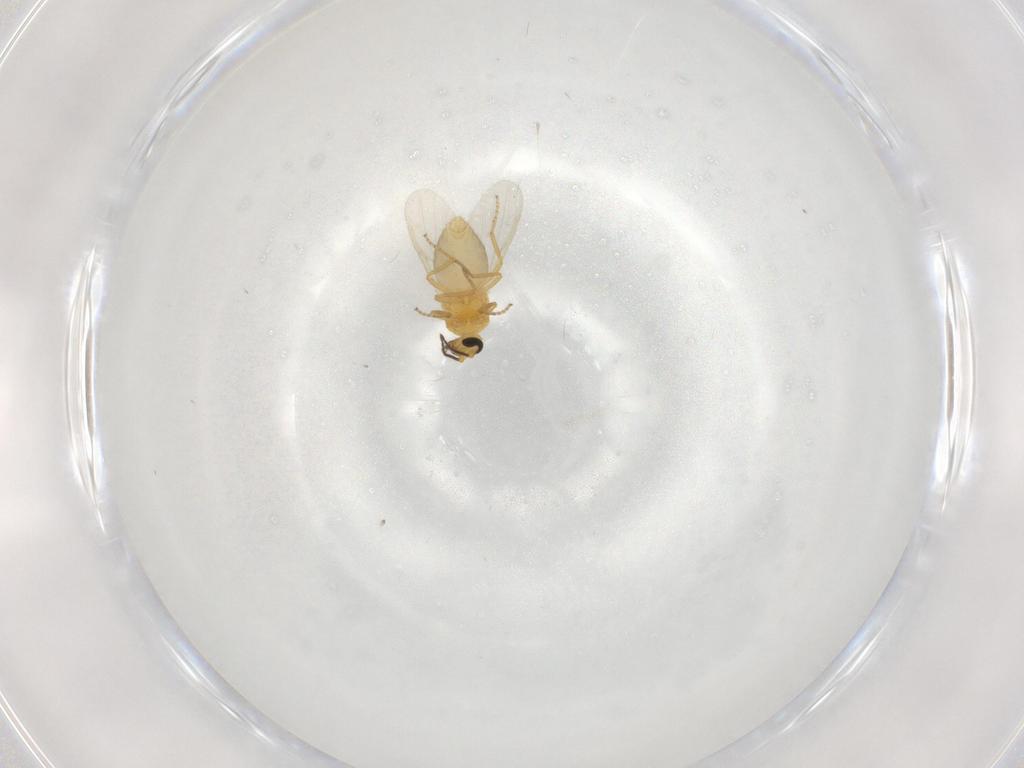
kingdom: Animalia
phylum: Arthropoda
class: Insecta
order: Diptera
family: Ceratopogonidae
